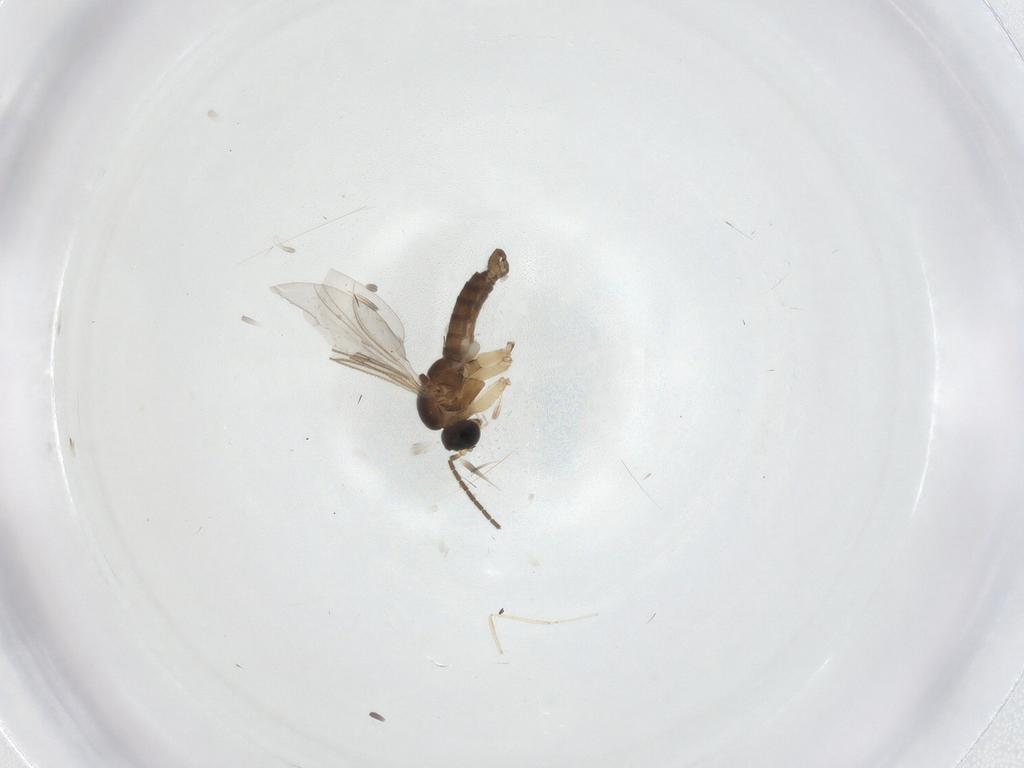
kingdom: Animalia
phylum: Arthropoda
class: Insecta
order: Diptera
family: Cecidomyiidae
